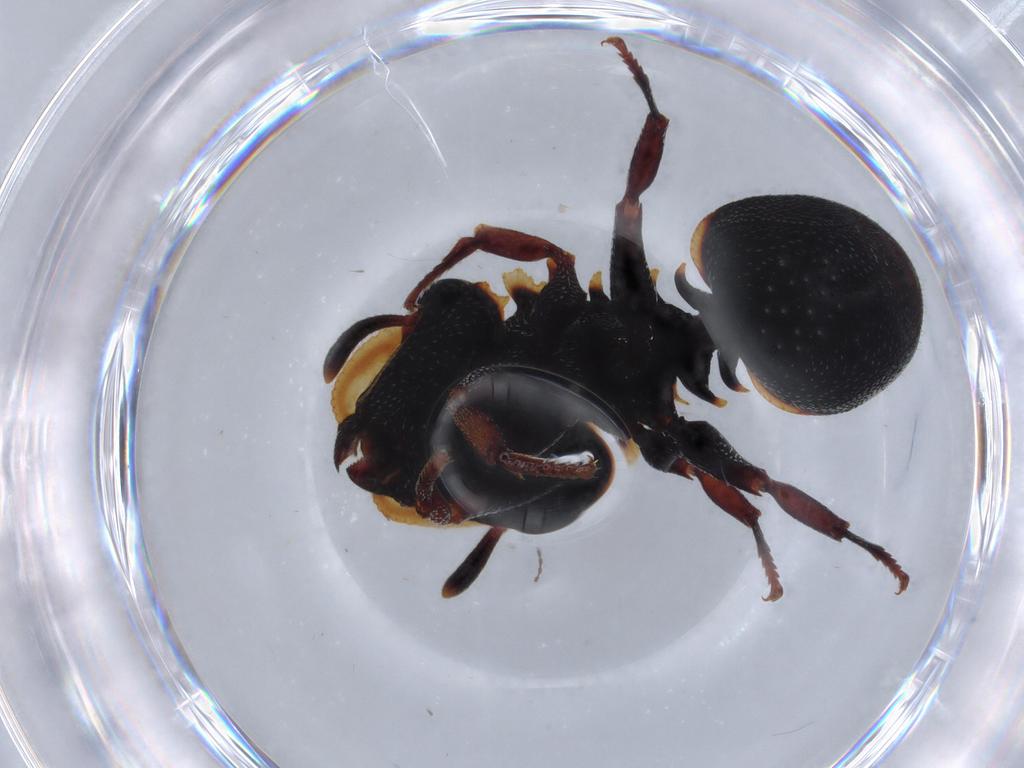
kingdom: Animalia
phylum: Arthropoda
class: Insecta
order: Hymenoptera
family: Formicidae
